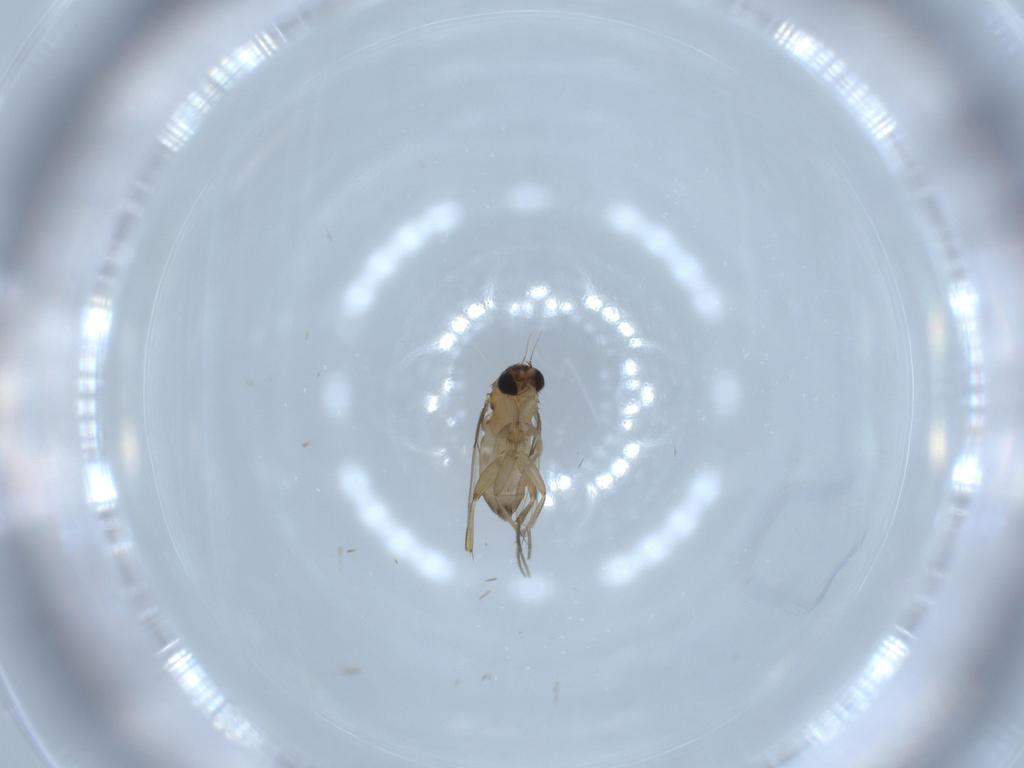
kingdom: Animalia
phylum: Arthropoda
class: Insecta
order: Diptera
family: Phoridae
